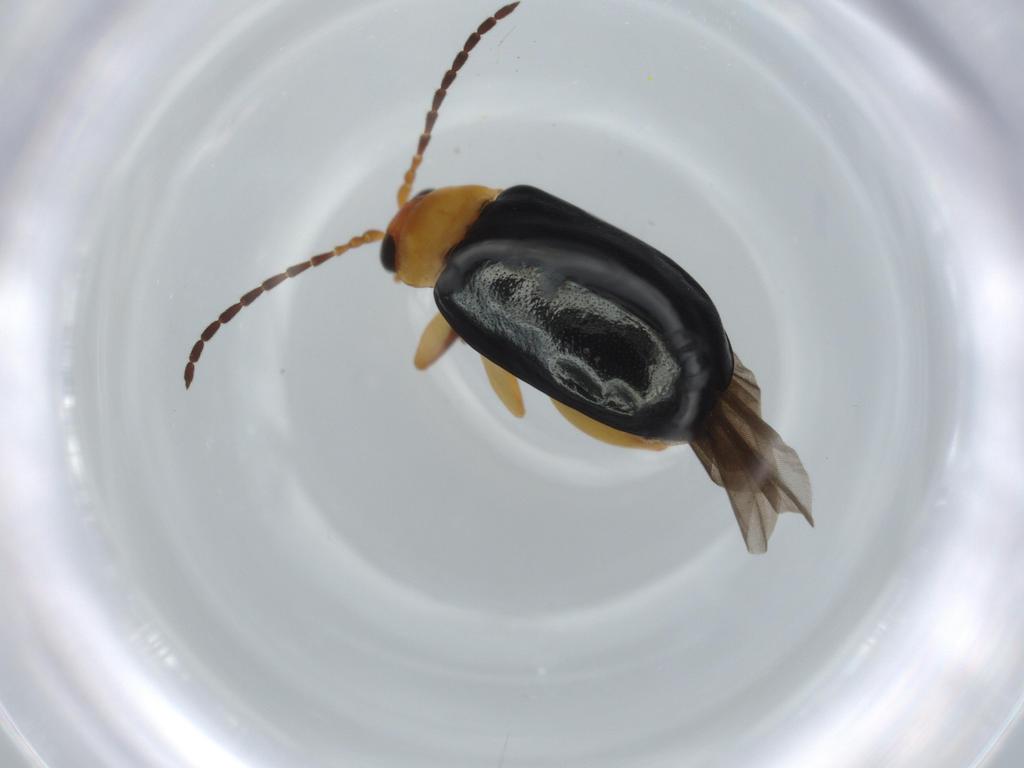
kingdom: Animalia
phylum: Arthropoda
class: Insecta
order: Coleoptera
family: Chrysomelidae
